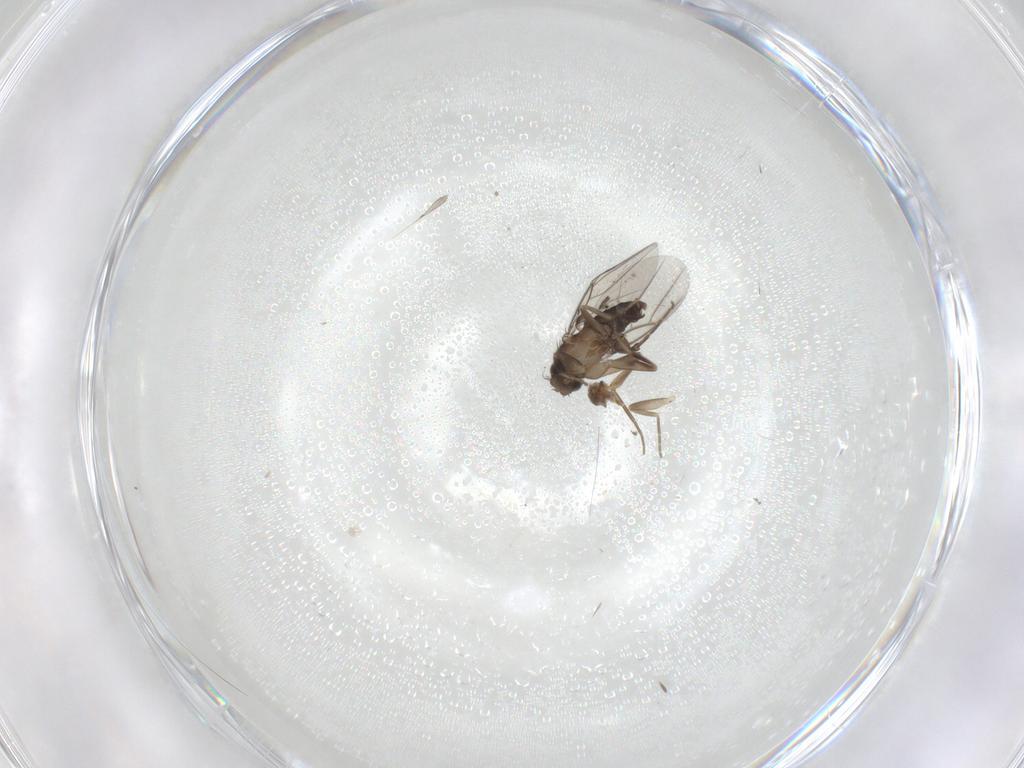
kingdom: Animalia
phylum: Arthropoda
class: Insecta
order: Diptera
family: Phoridae
